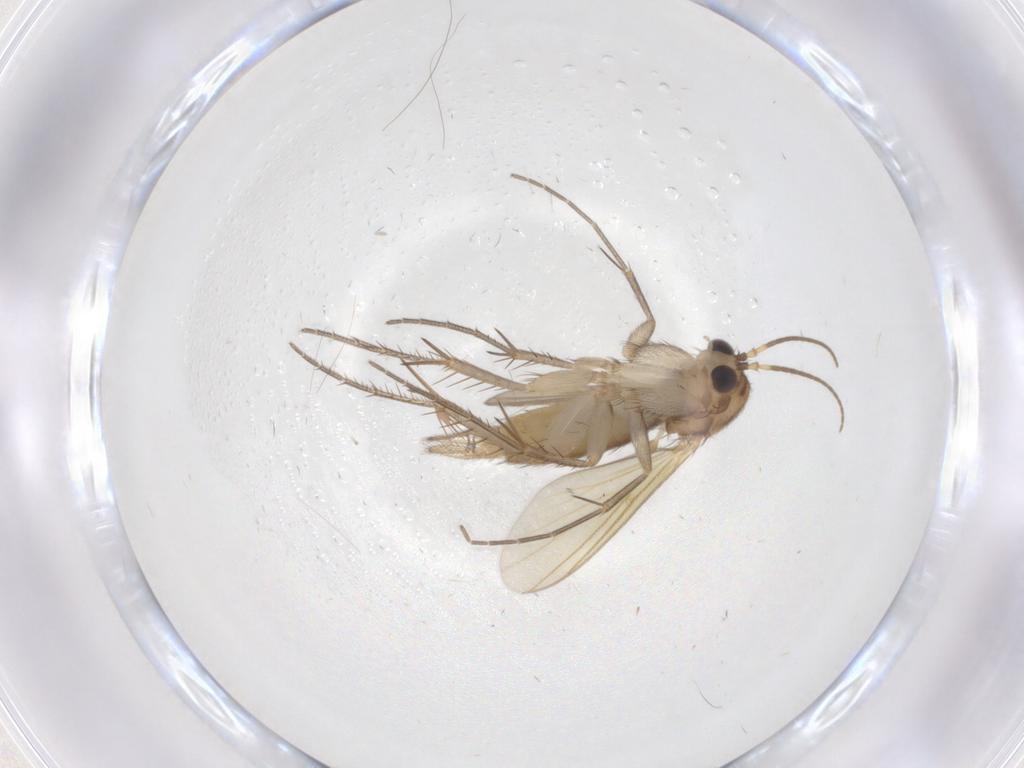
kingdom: Animalia
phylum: Arthropoda
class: Insecta
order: Diptera
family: Mycetophilidae
